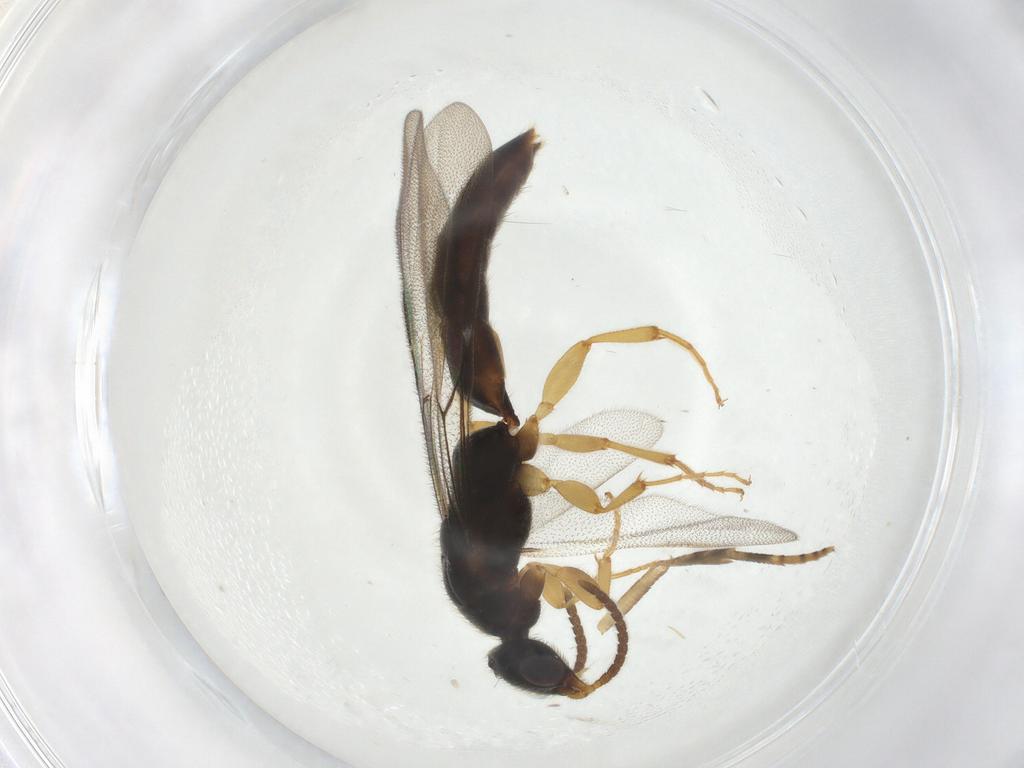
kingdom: Animalia
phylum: Arthropoda
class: Insecta
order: Hymenoptera
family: Bethylidae
